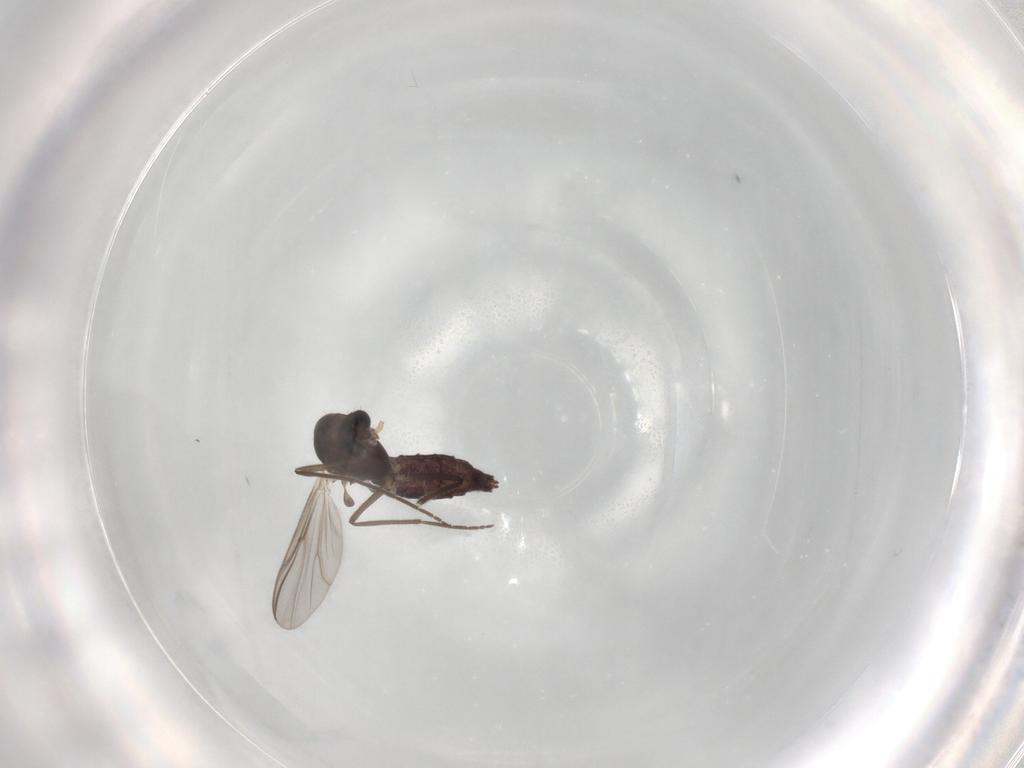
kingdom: Animalia
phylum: Arthropoda
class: Insecta
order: Diptera
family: Chironomidae
